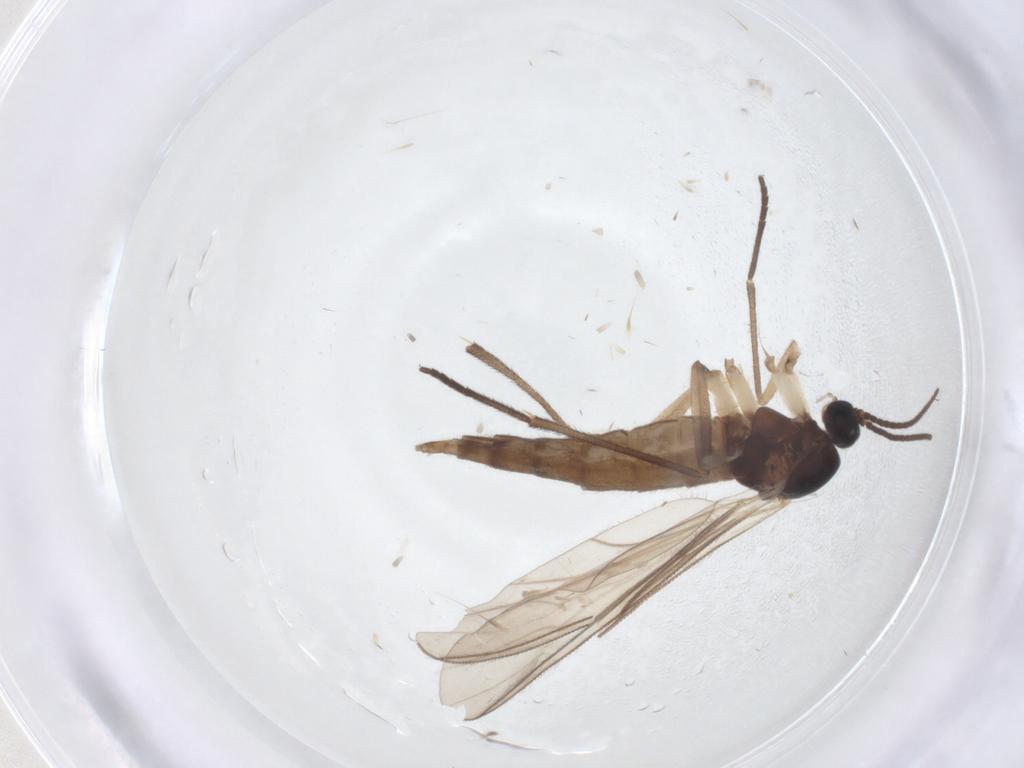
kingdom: Animalia
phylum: Arthropoda
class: Insecta
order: Diptera
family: Sciaridae
